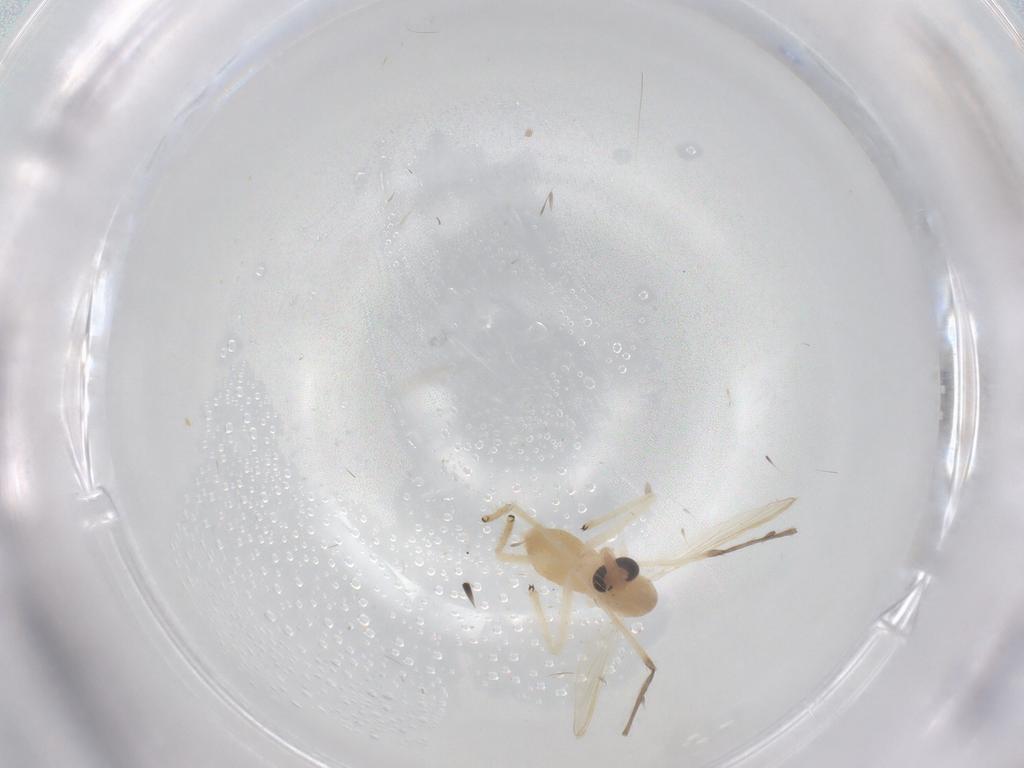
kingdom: Animalia
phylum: Arthropoda
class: Insecta
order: Diptera
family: Chironomidae
